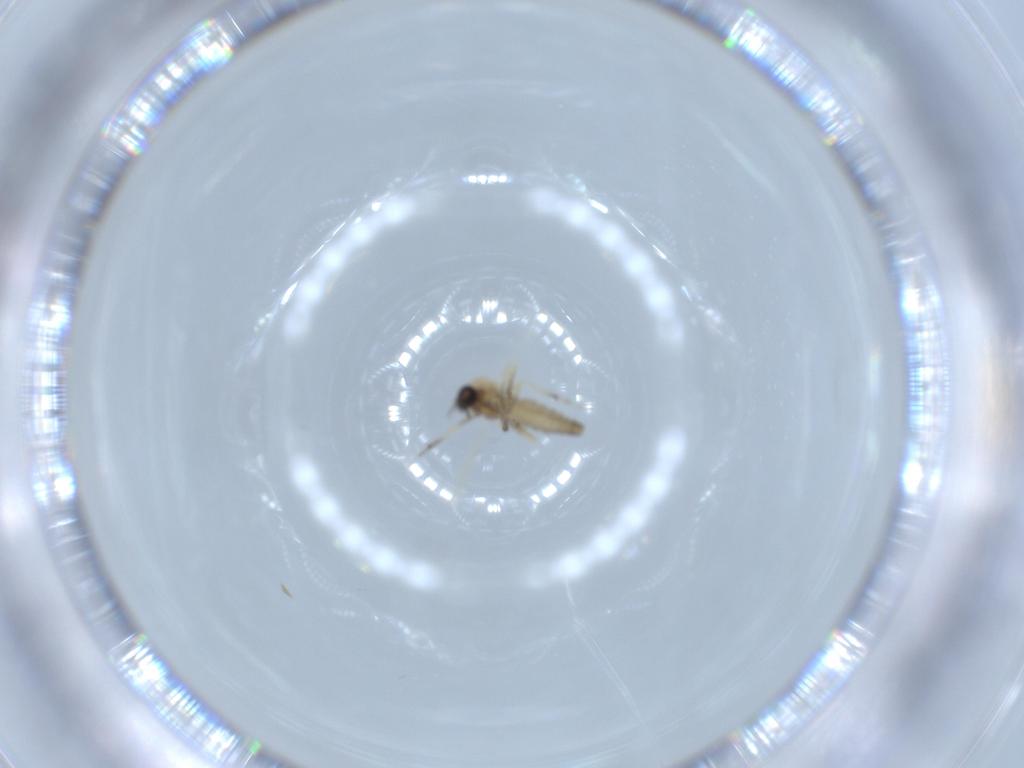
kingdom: Animalia
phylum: Arthropoda
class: Insecta
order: Diptera
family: Ceratopogonidae
